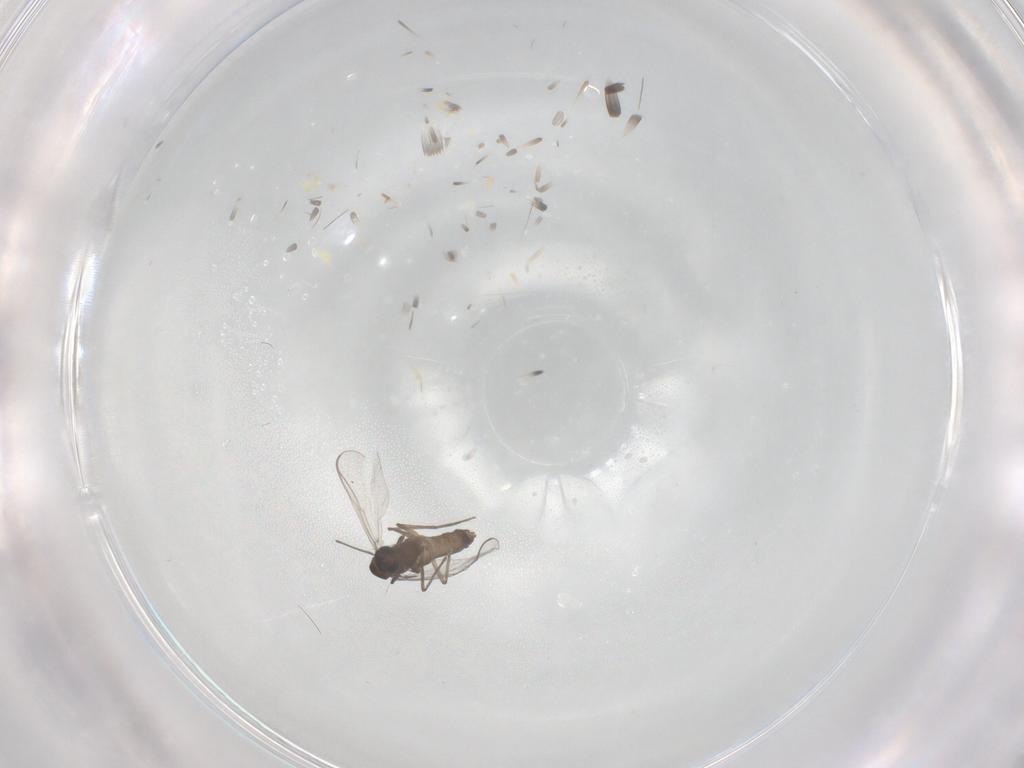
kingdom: Animalia
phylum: Arthropoda
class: Insecta
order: Diptera
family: Chironomidae
